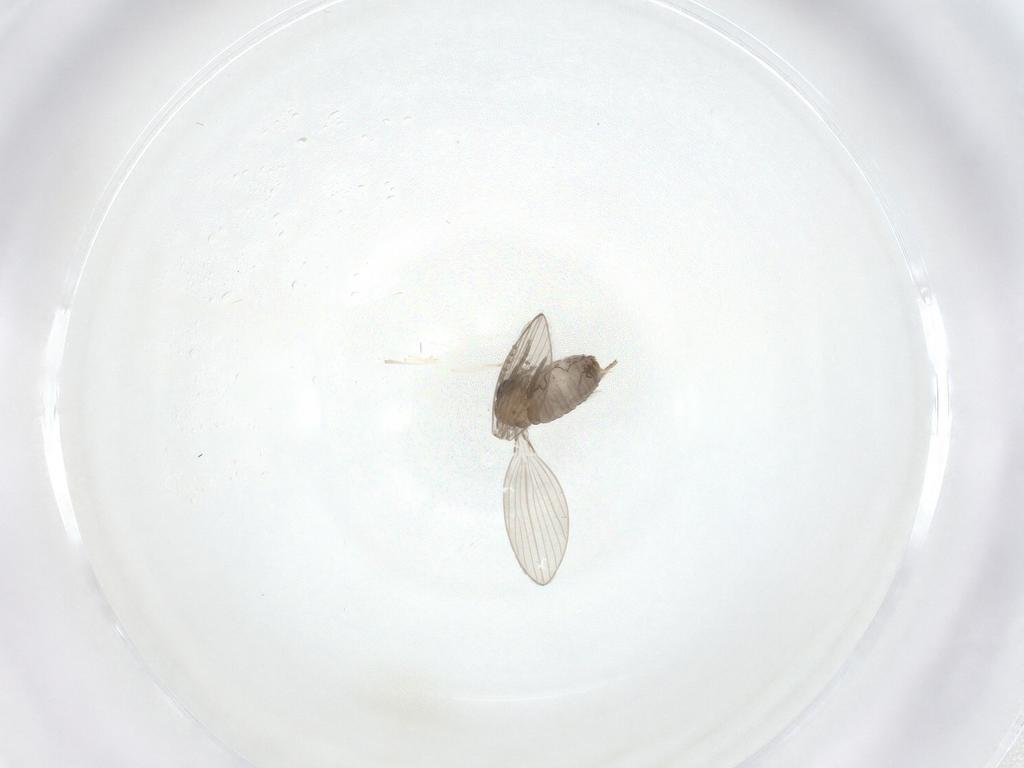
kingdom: Animalia
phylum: Arthropoda
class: Insecta
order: Diptera
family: Psychodidae
